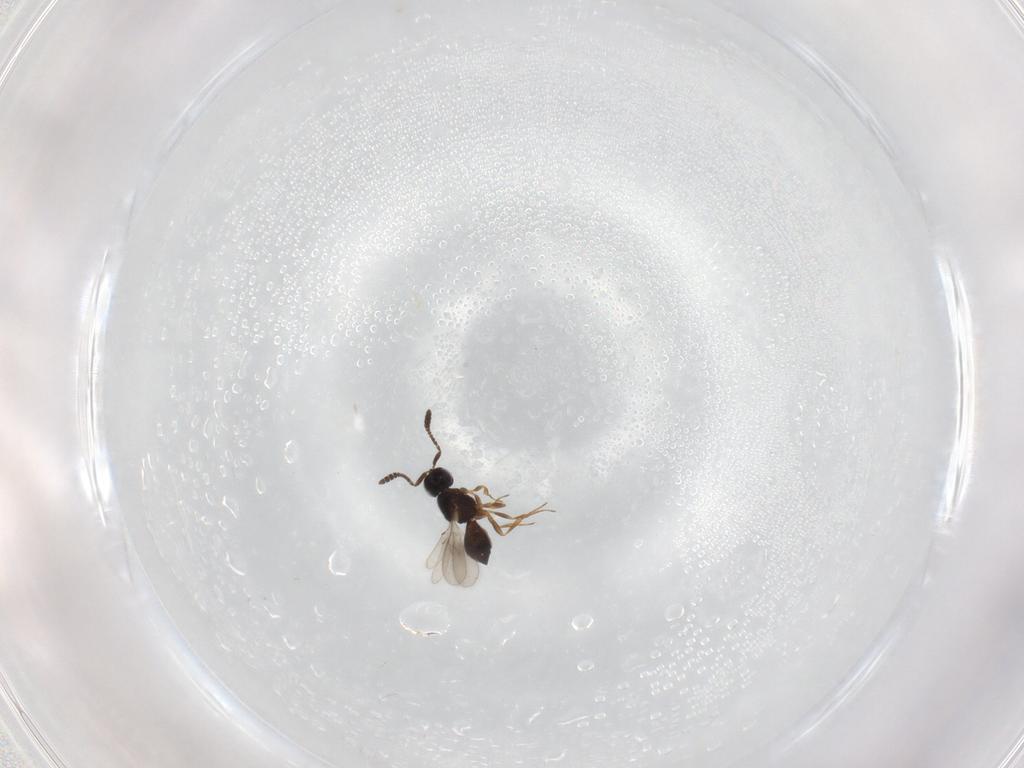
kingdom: Animalia
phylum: Arthropoda
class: Insecta
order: Hymenoptera
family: Scelionidae
